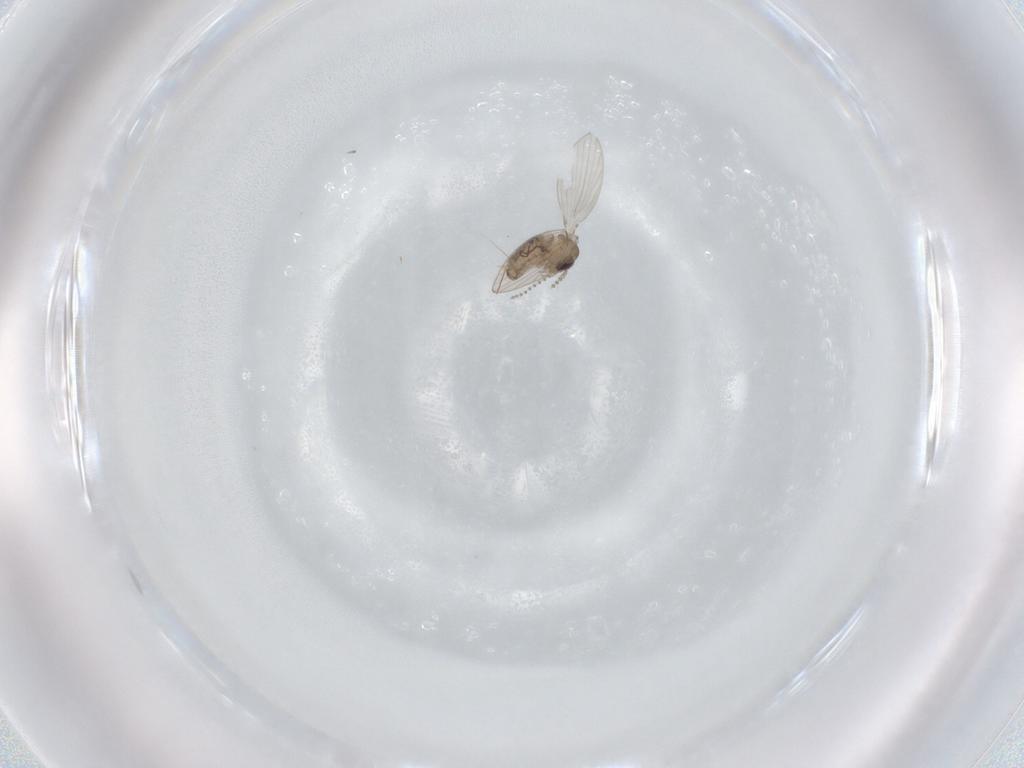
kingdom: Animalia
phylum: Arthropoda
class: Insecta
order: Diptera
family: Psychodidae
